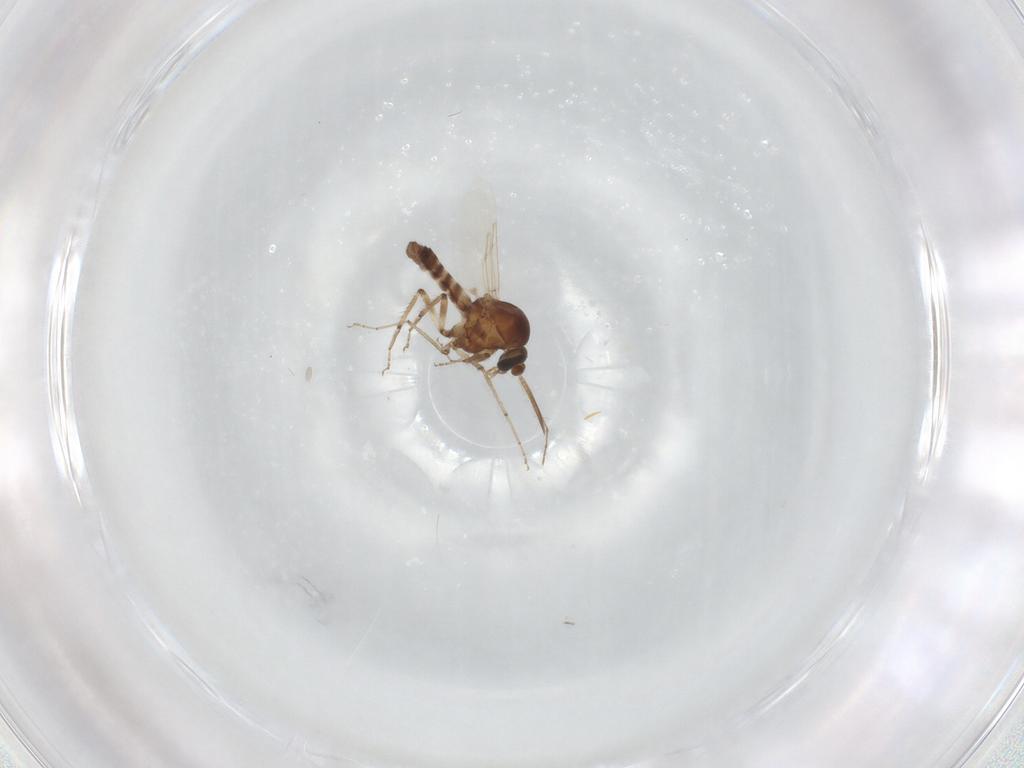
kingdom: Animalia
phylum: Arthropoda
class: Insecta
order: Diptera
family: Ceratopogonidae
